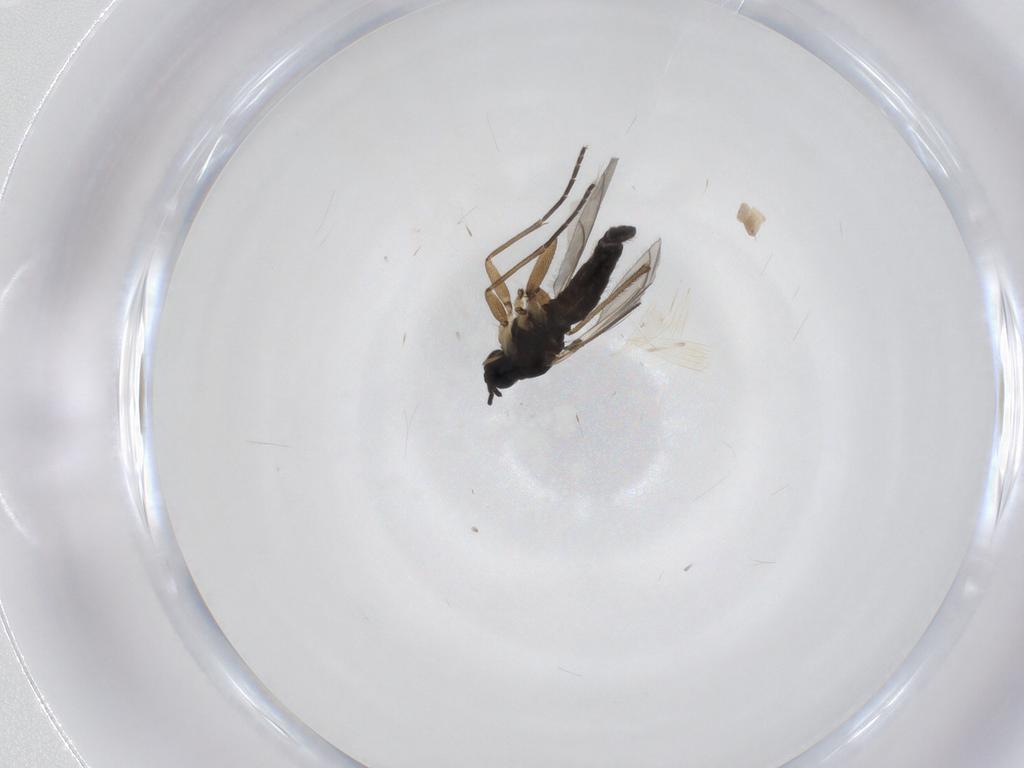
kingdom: Animalia
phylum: Arthropoda
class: Insecta
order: Diptera
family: Sciaridae
